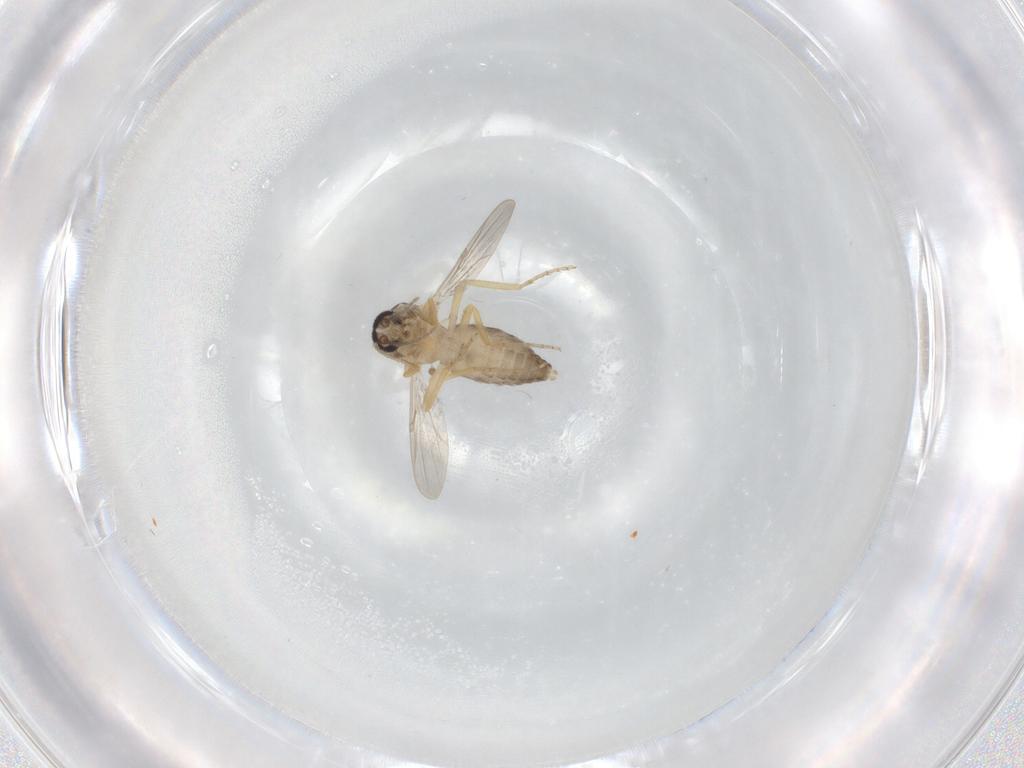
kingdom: Animalia
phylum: Arthropoda
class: Insecta
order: Diptera
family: Ceratopogonidae
